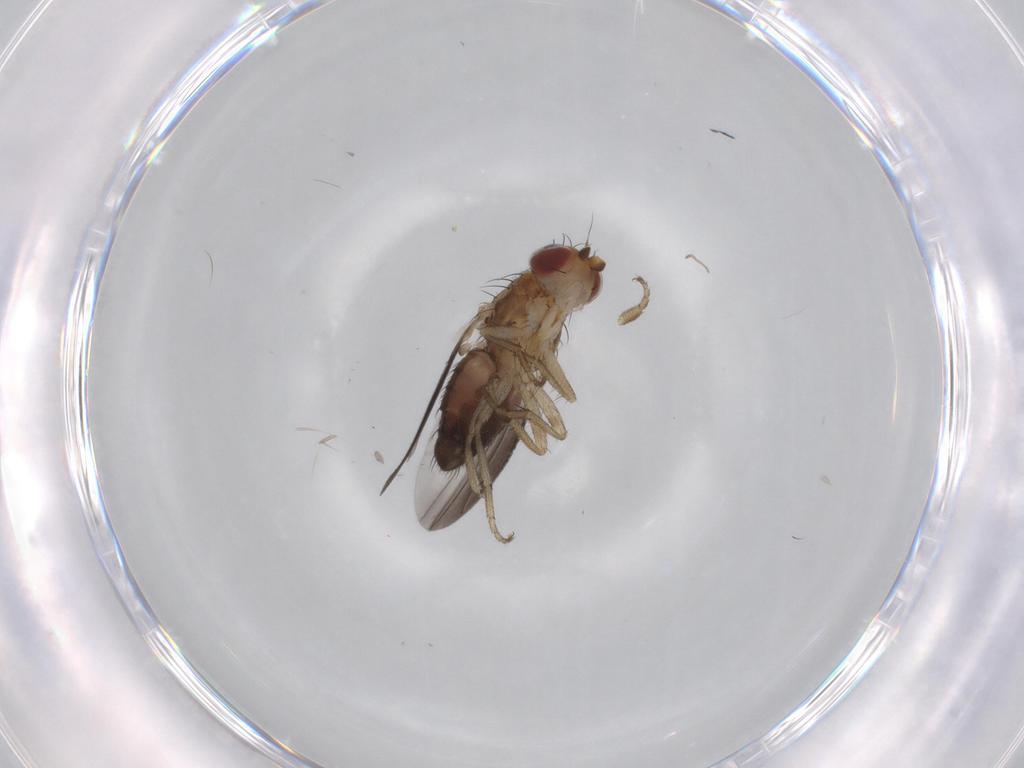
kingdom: Animalia
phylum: Arthropoda
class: Insecta
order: Diptera
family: Heleomyzidae
